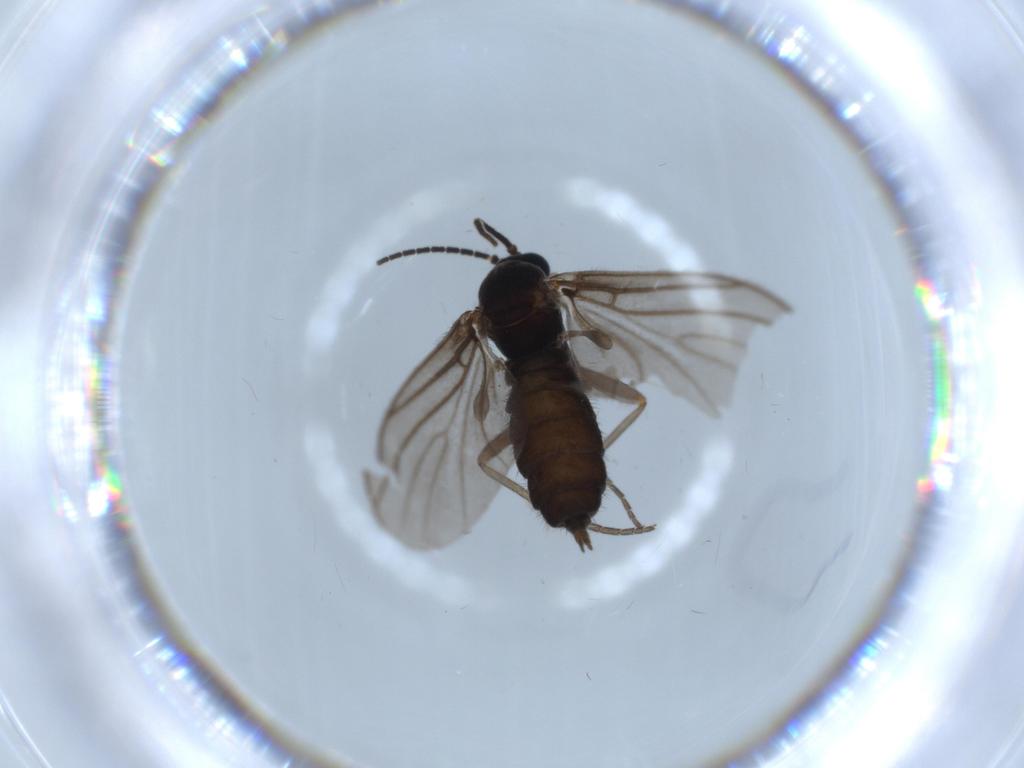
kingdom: Animalia
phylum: Arthropoda
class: Insecta
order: Diptera
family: Sciaridae
